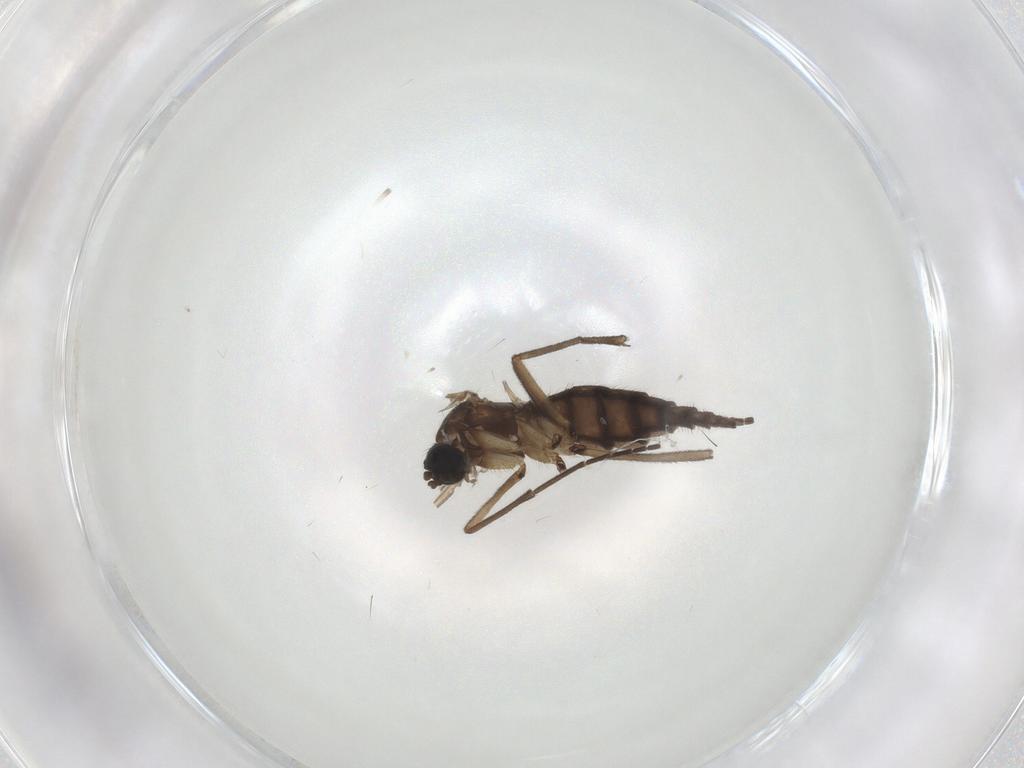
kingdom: Animalia
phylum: Arthropoda
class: Insecta
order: Diptera
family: Sciaridae
